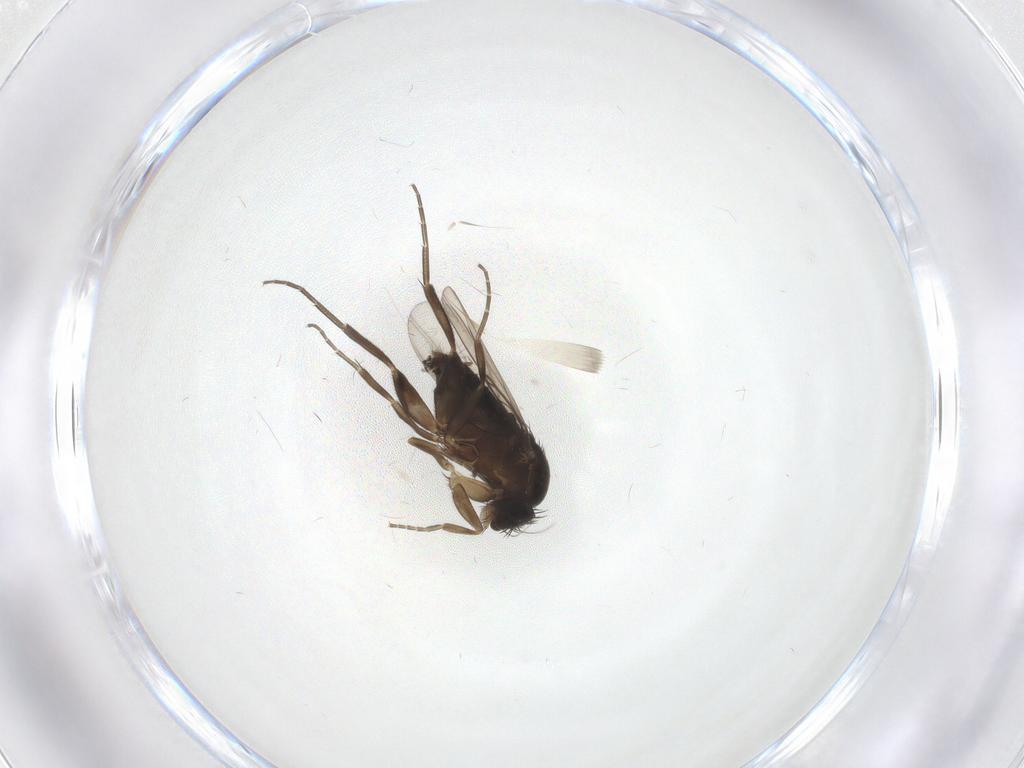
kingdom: Animalia
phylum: Arthropoda
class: Insecta
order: Diptera
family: Phoridae
